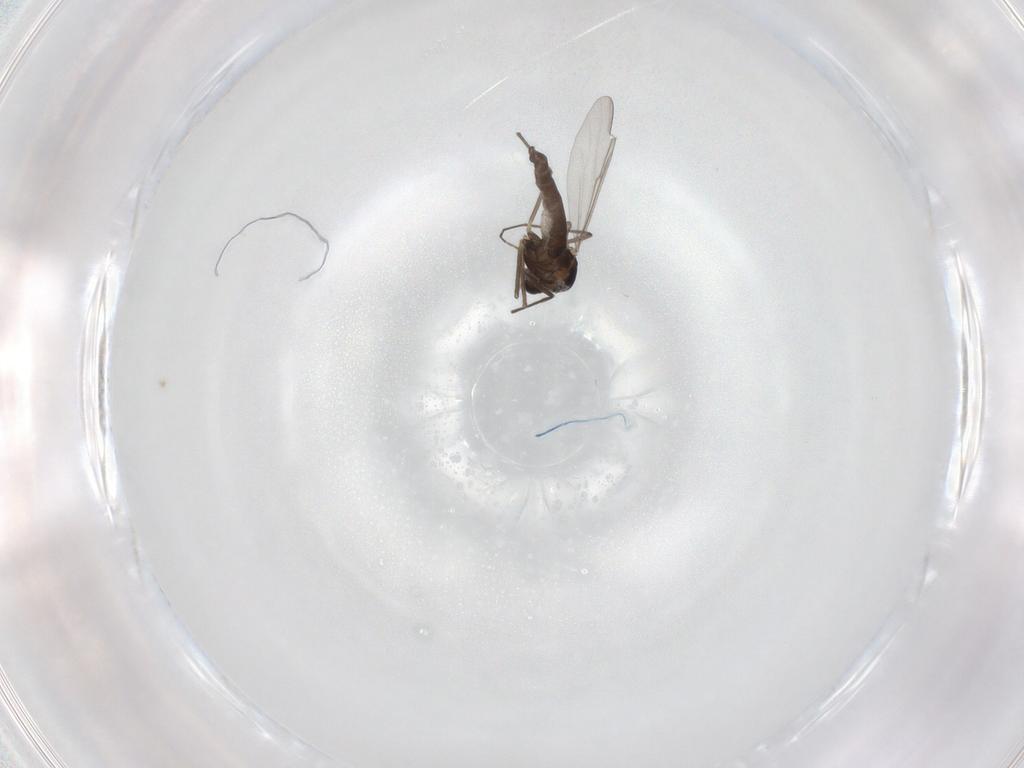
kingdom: Animalia
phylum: Arthropoda
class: Insecta
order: Diptera
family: Chironomidae
